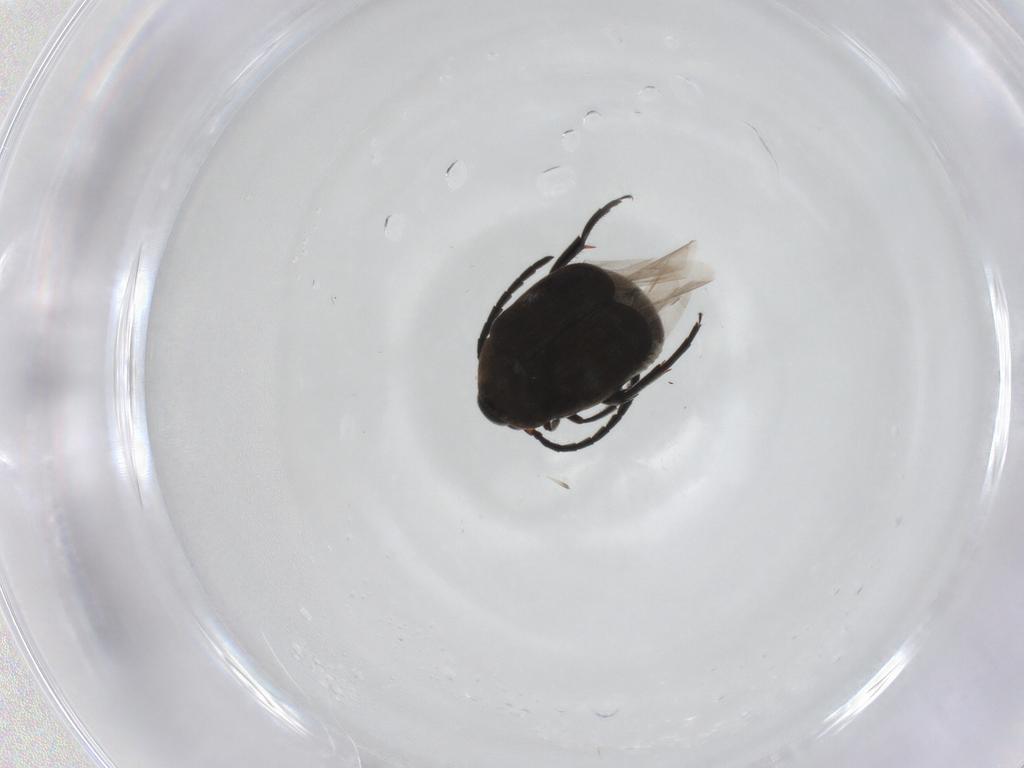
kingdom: Animalia
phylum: Arthropoda
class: Insecta
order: Coleoptera
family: Chrysomelidae
